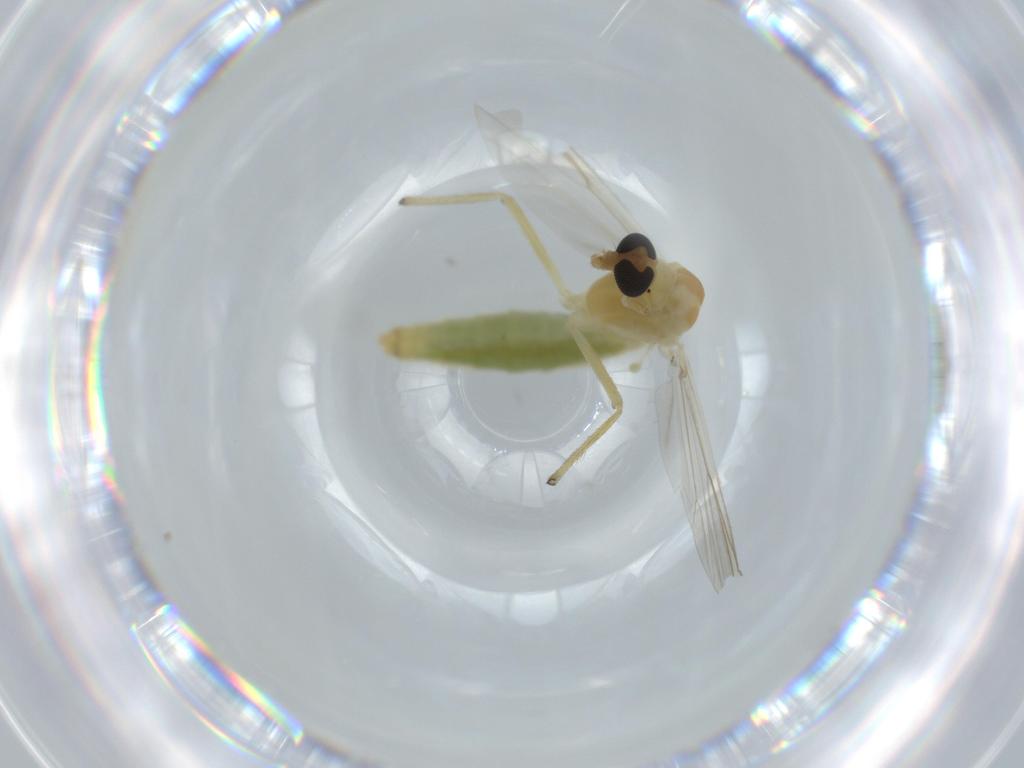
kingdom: Animalia
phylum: Arthropoda
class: Insecta
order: Diptera
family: Chironomidae
